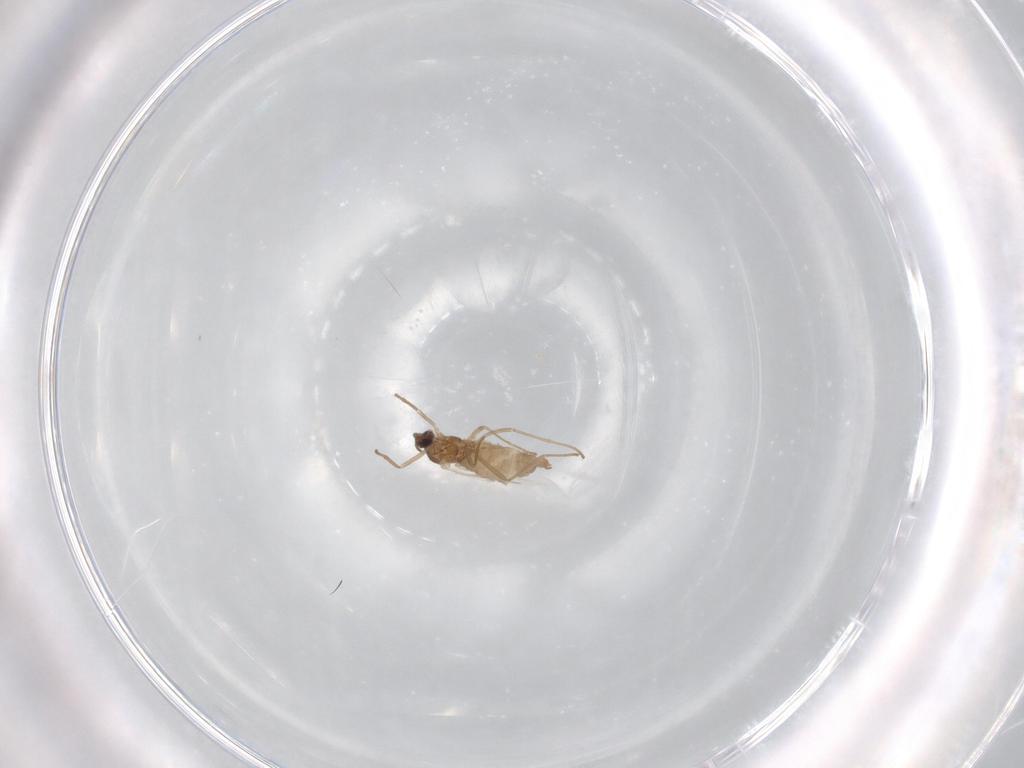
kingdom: Animalia
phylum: Arthropoda
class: Insecta
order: Diptera
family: Cecidomyiidae
